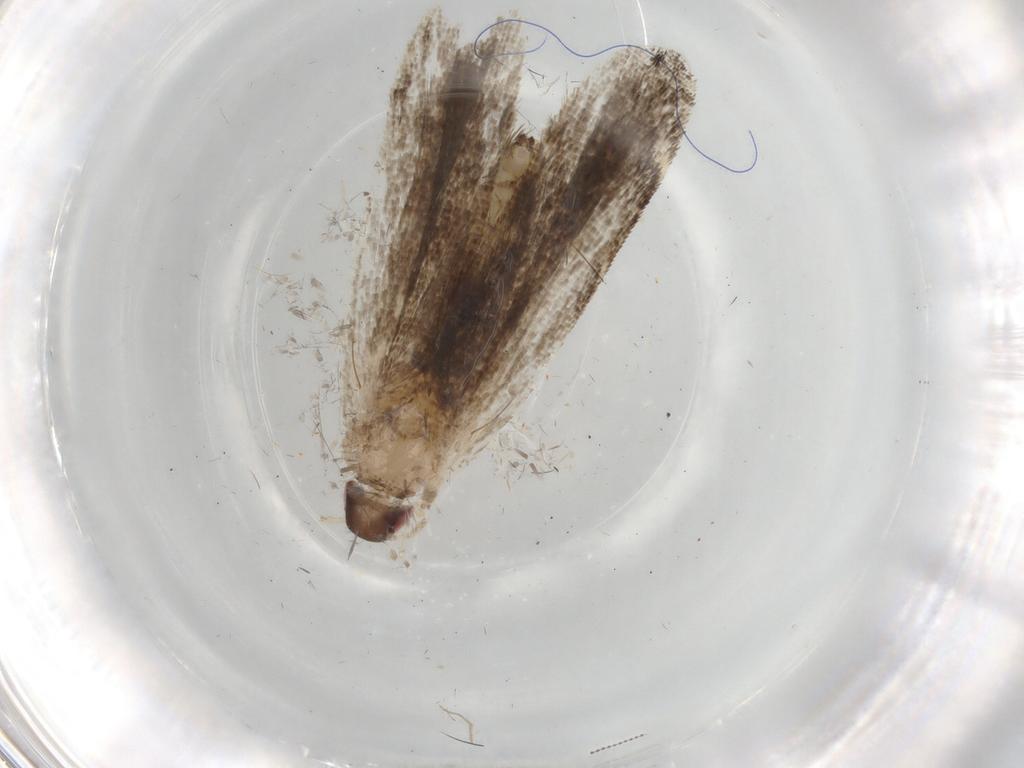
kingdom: Animalia
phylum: Arthropoda
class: Insecta
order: Lepidoptera
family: Gelechiidae
